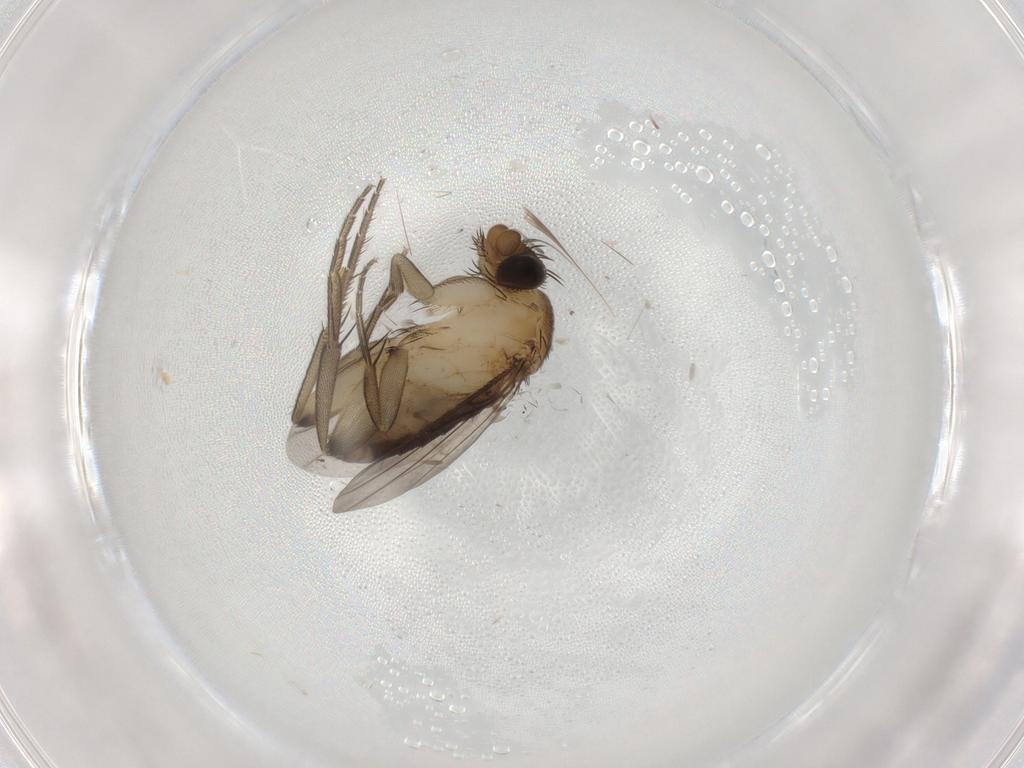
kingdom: Animalia
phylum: Arthropoda
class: Insecta
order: Diptera
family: Phoridae
